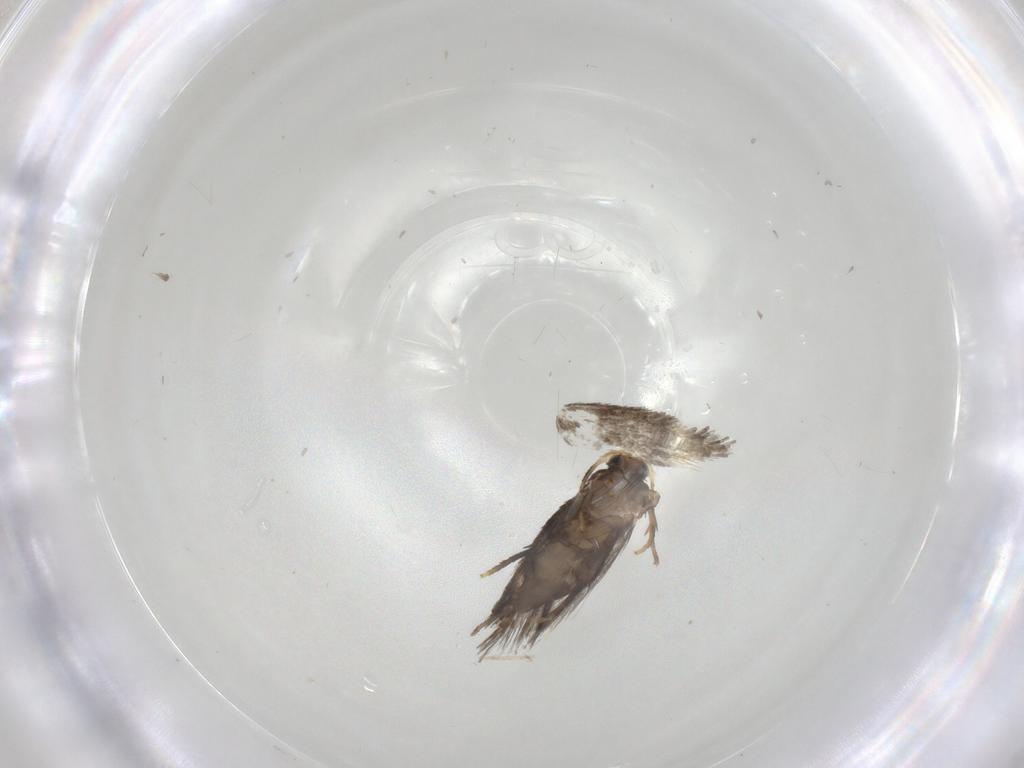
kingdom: Animalia
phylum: Arthropoda
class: Insecta
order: Lepidoptera
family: Nepticulidae
